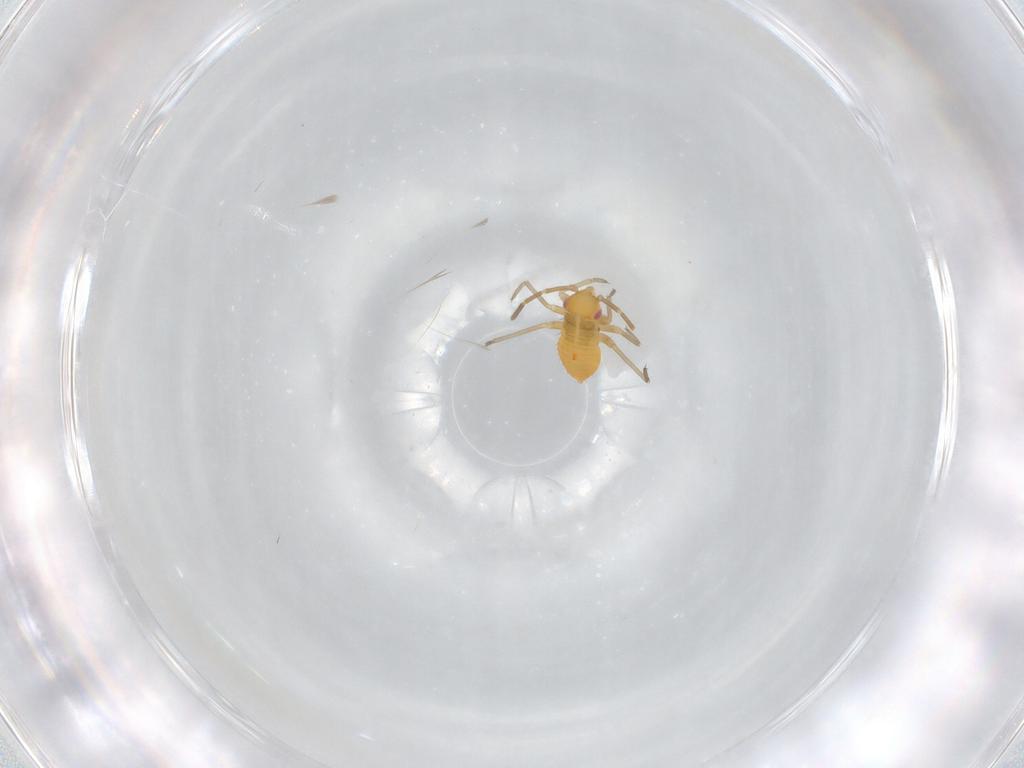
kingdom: Animalia
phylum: Arthropoda
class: Insecta
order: Hemiptera
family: Cicadellidae
